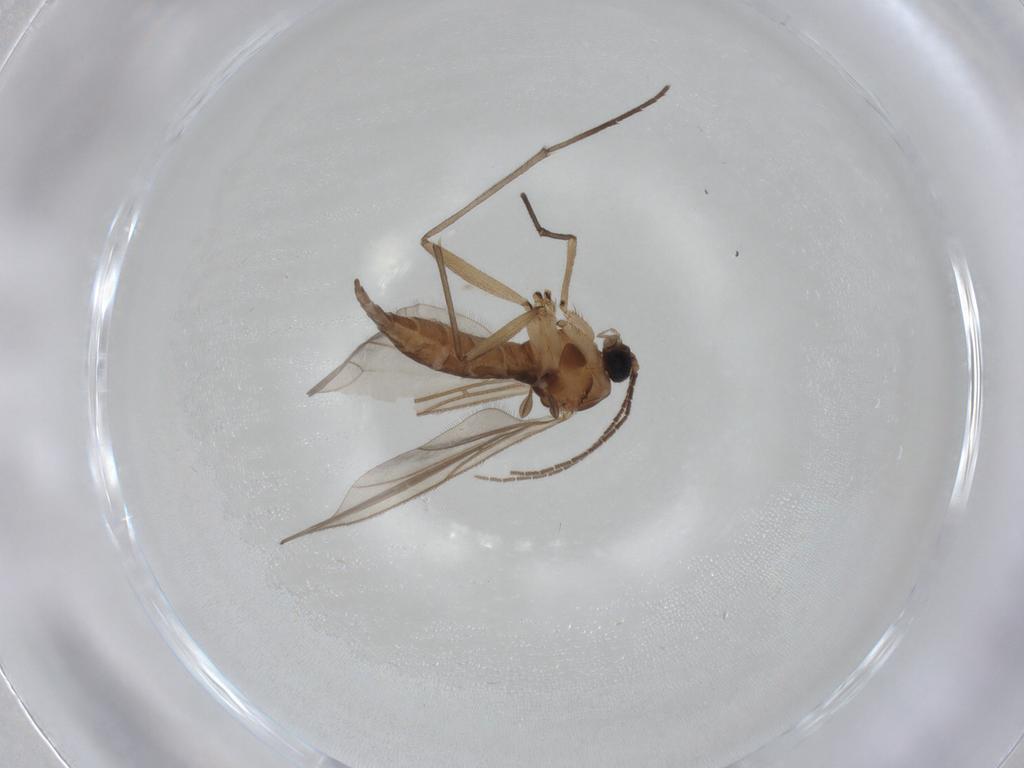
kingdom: Animalia
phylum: Arthropoda
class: Insecta
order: Diptera
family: Sciaridae
